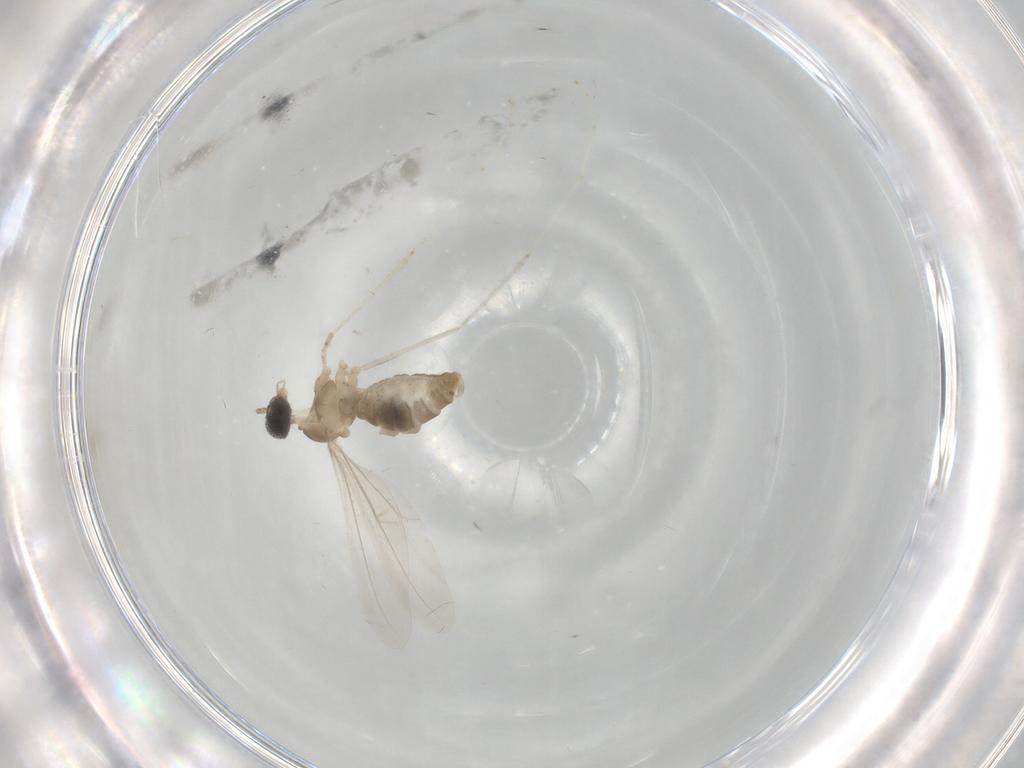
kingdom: Animalia
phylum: Arthropoda
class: Insecta
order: Diptera
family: Cecidomyiidae
